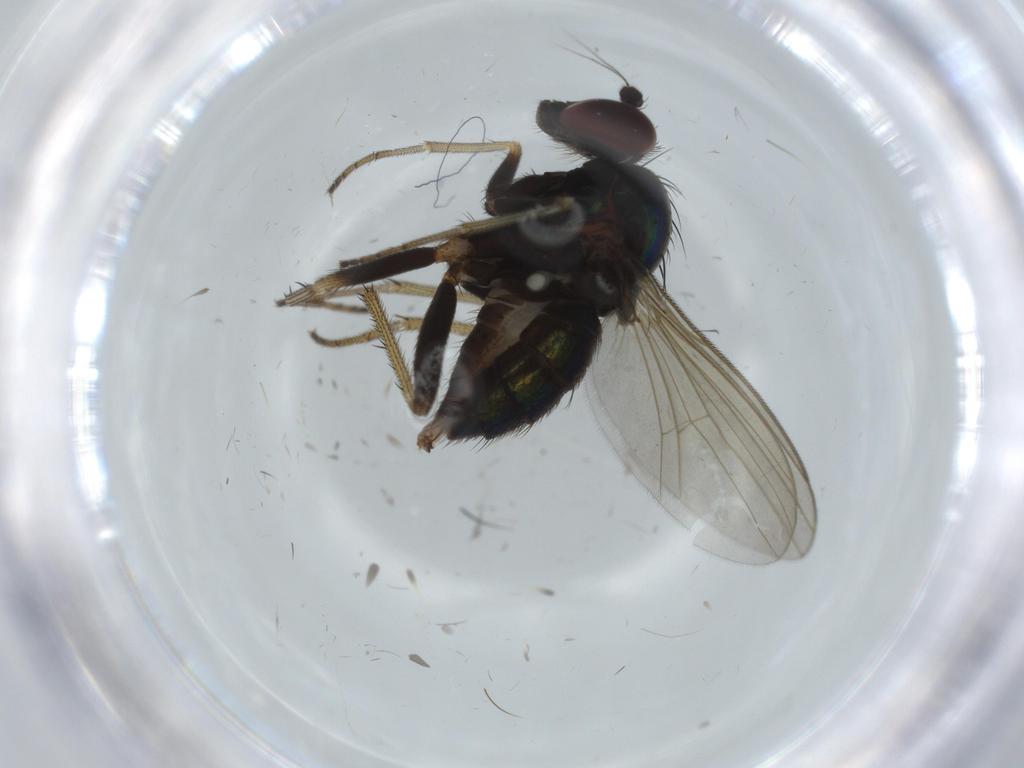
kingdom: Animalia
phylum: Arthropoda
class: Insecta
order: Diptera
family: Dolichopodidae
